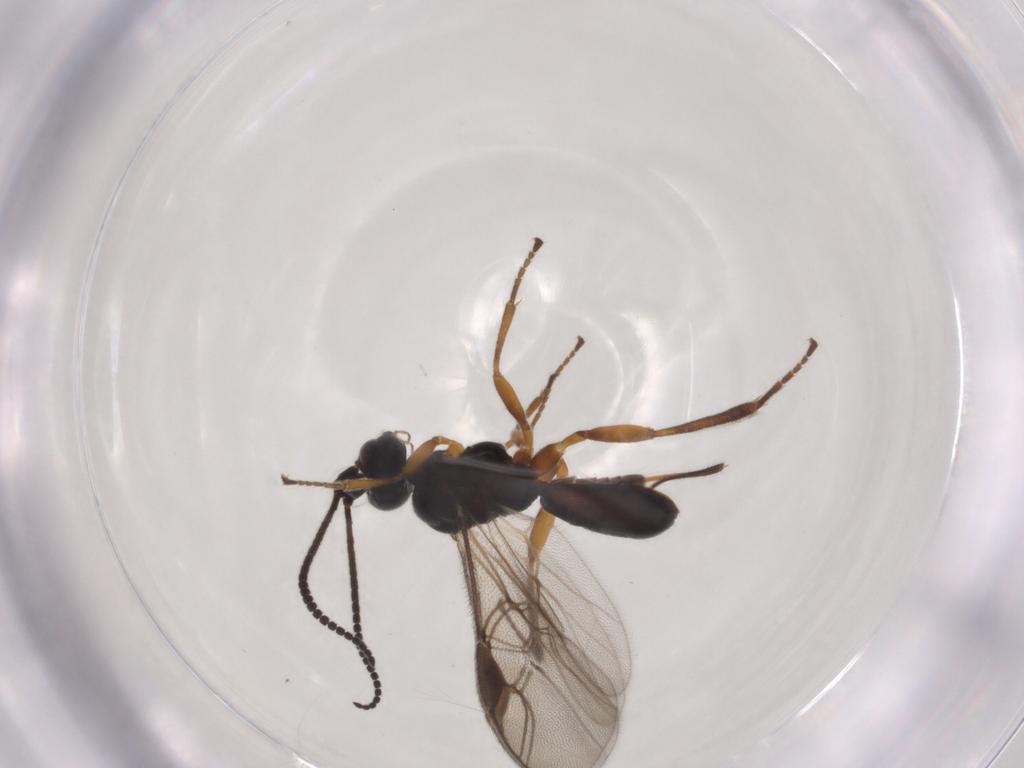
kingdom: Animalia
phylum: Arthropoda
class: Insecta
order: Hymenoptera
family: Braconidae
